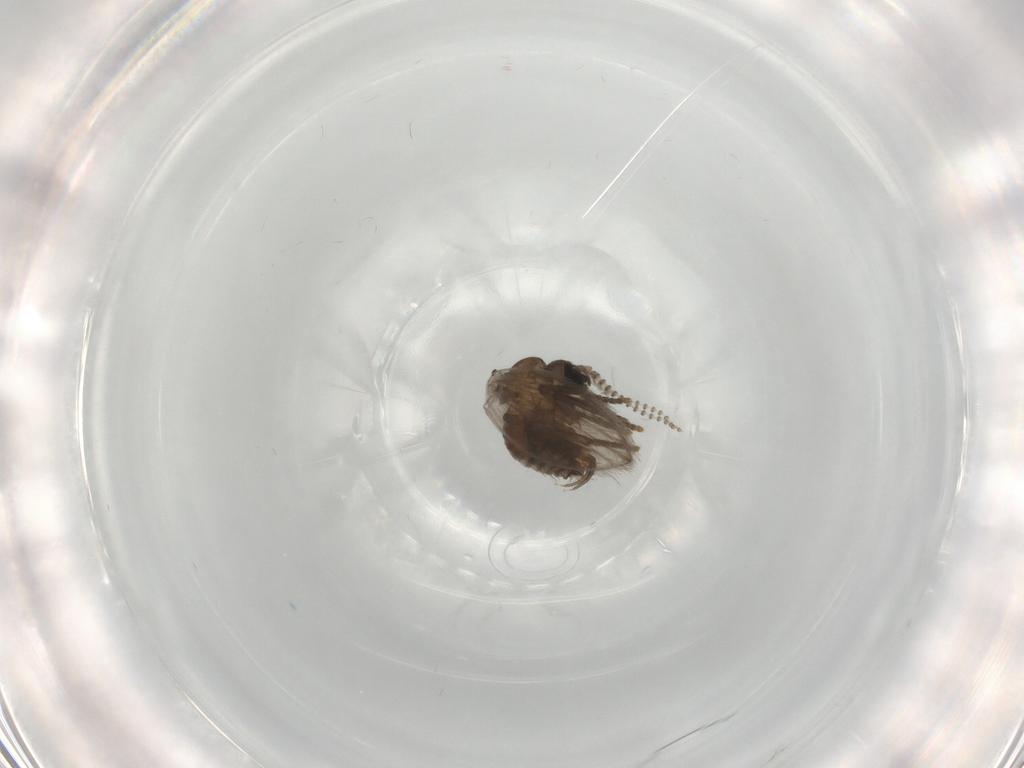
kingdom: Animalia
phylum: Arthropoda
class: Insecta
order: Diptera
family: Psychodidae
